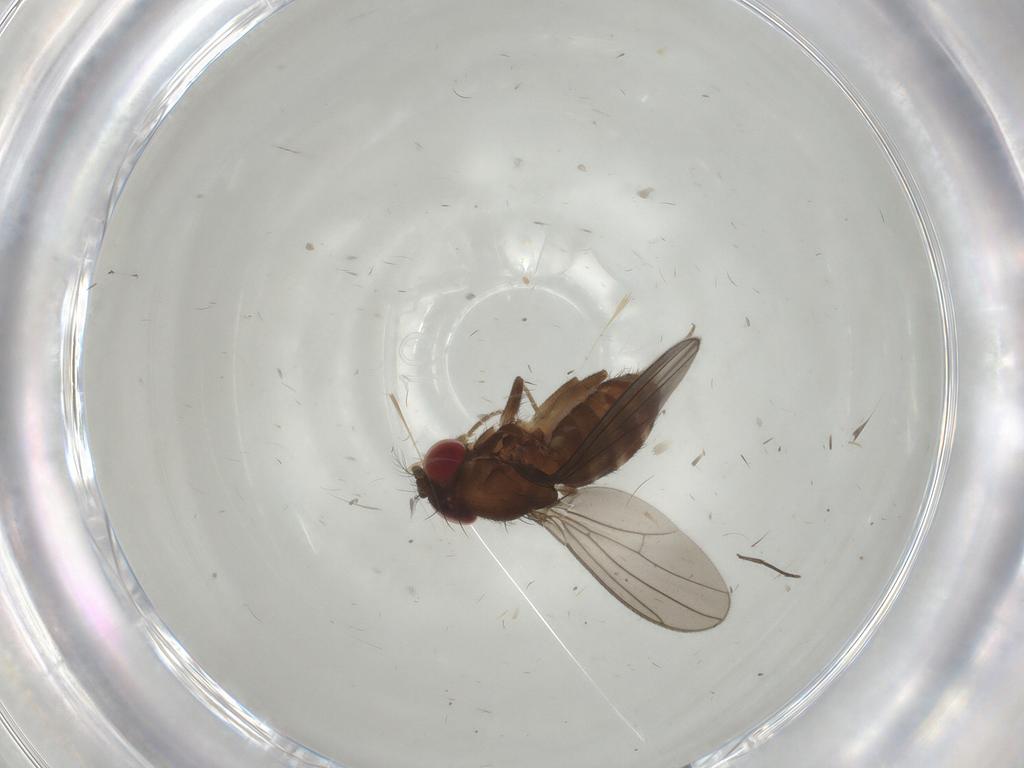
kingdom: Animalia
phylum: Arthropoda
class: Insecta
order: Diptera
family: Drosophilidae
